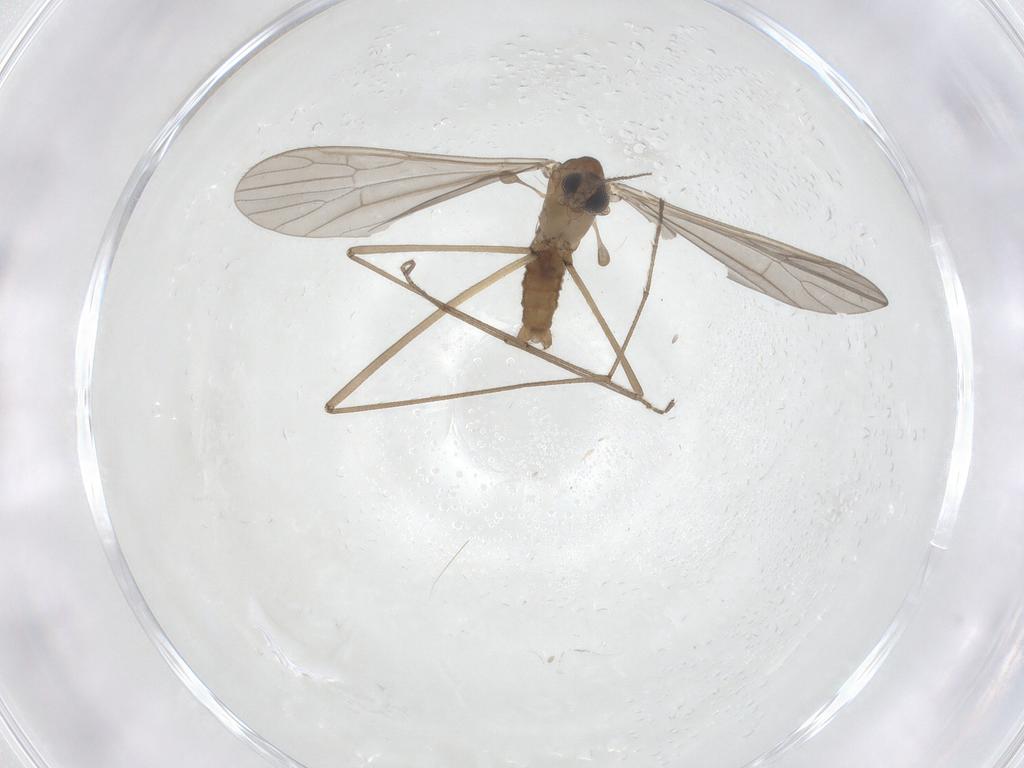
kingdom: Animalia
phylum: Arthropoda
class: Insecta
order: Diptera
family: Limoniidae
